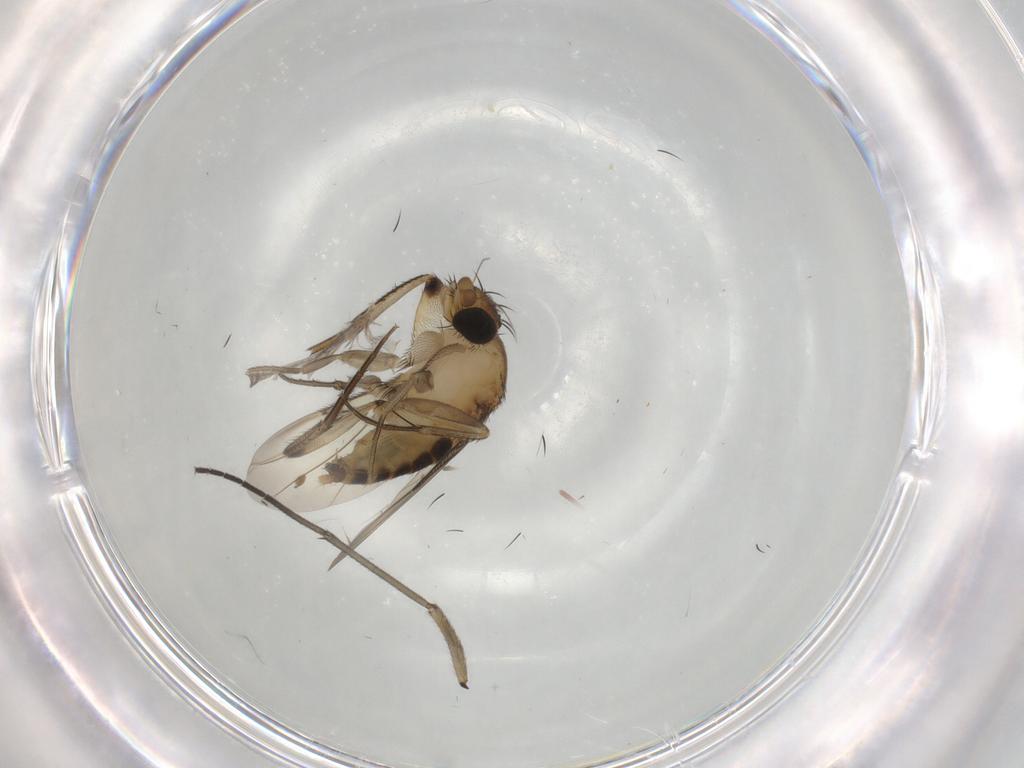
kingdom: Animalia
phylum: Arthropoda
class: Insecta
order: Diptera
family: Phoridae
